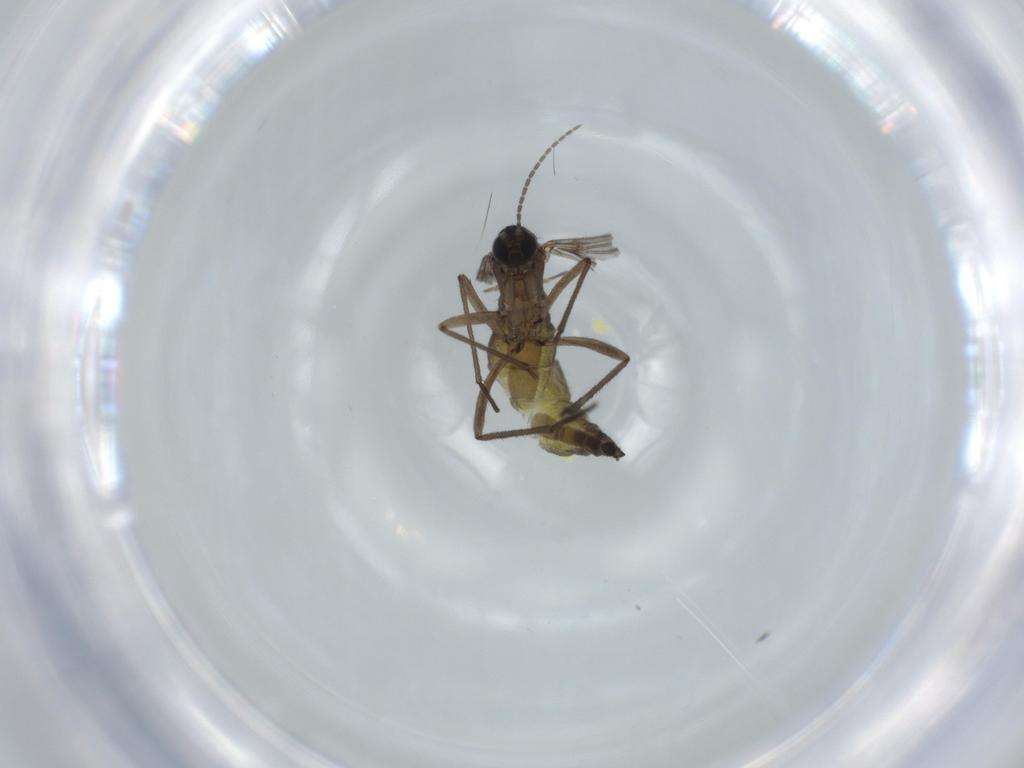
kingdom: Animalia
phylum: Arthropoda
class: Insecta
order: Diptera
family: Sciaridae
